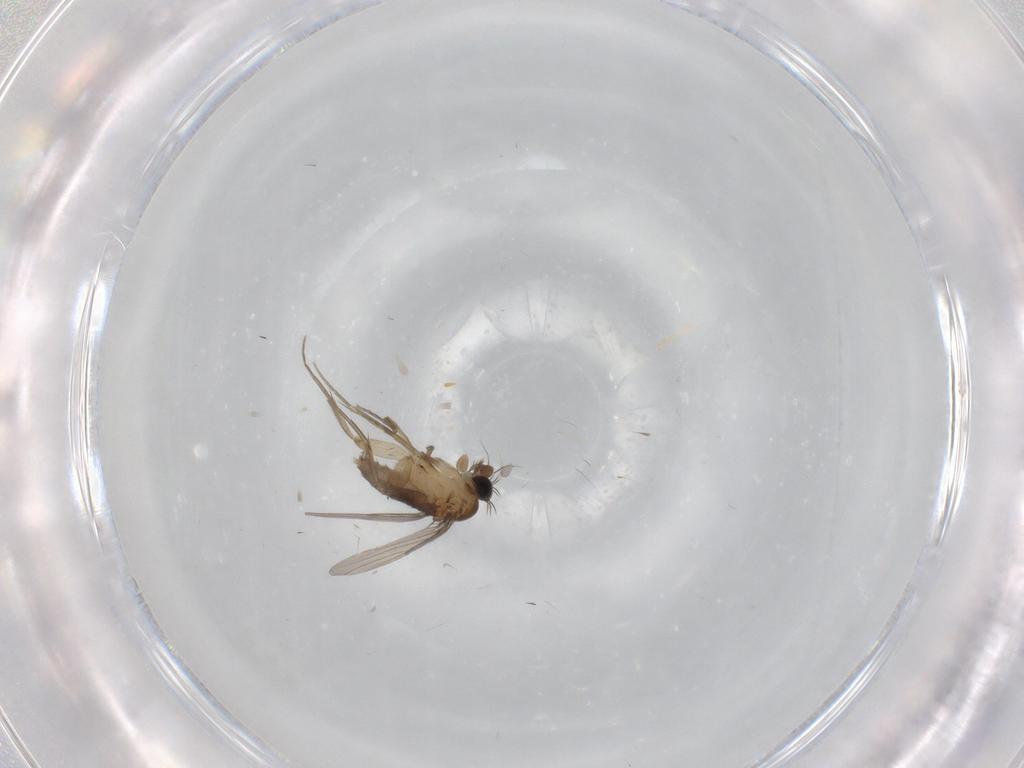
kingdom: Animalia
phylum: Arthropoda
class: Insecta
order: Diptera
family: Phoridae
